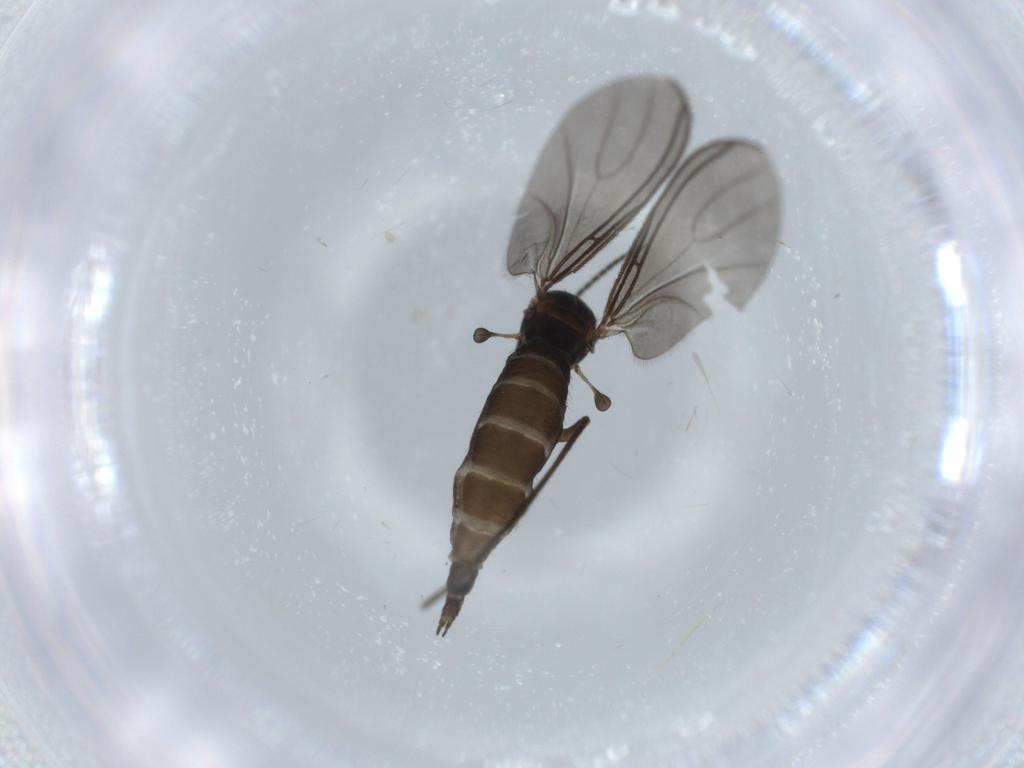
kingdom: Animalia
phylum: Arthropoda
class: Insecta
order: Diptera
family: Sciaridae
